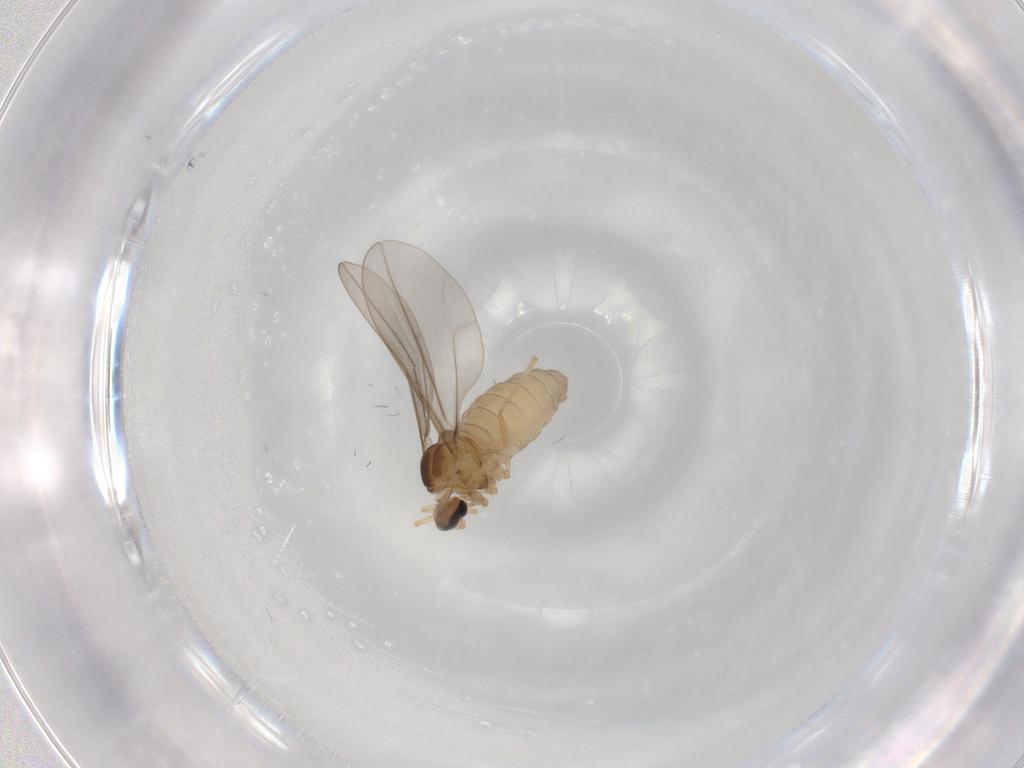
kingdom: Animalia
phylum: Arthropoda
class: Insecta
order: Diptera
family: Cecidomyiidae
